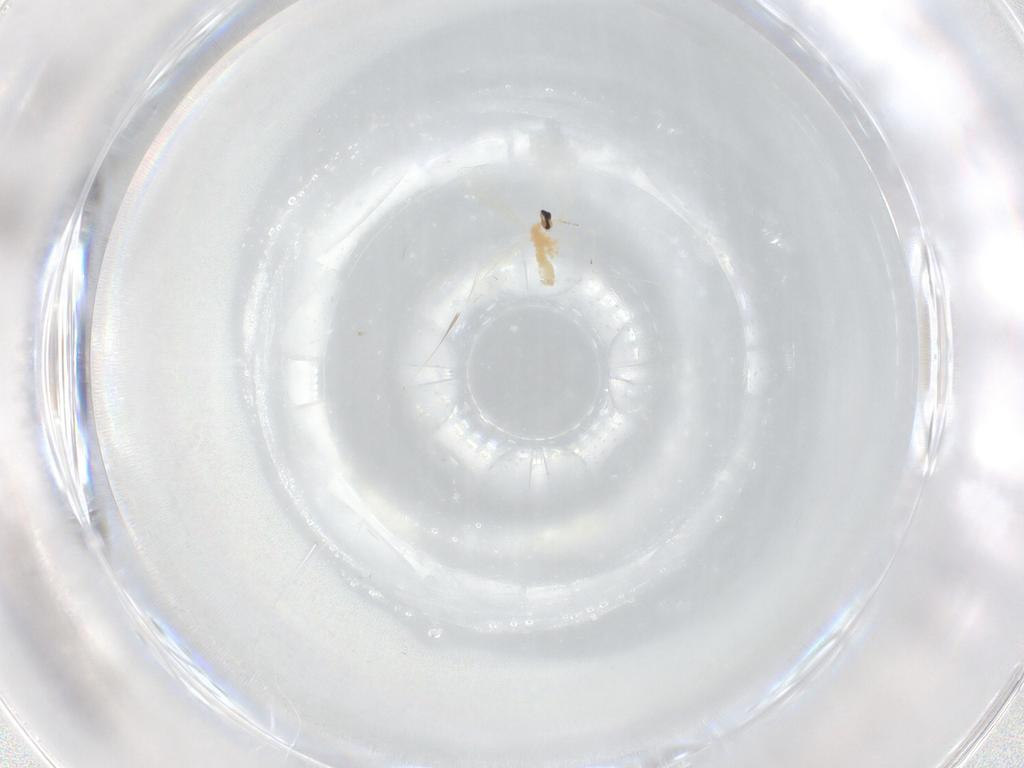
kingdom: Animalia
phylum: Arthropoda
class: Insecta
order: Diptera
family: Cecidomyiidae
